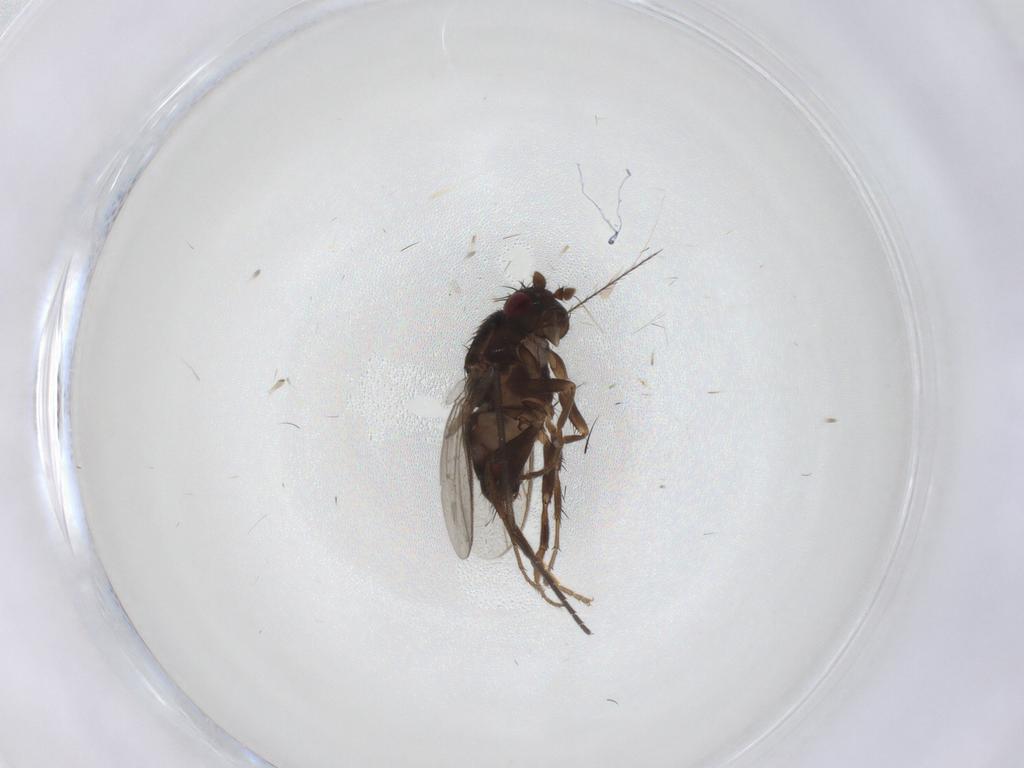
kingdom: Animalia
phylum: Arthropoda
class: Insecta
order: Diptera
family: Sphaeroceridae
